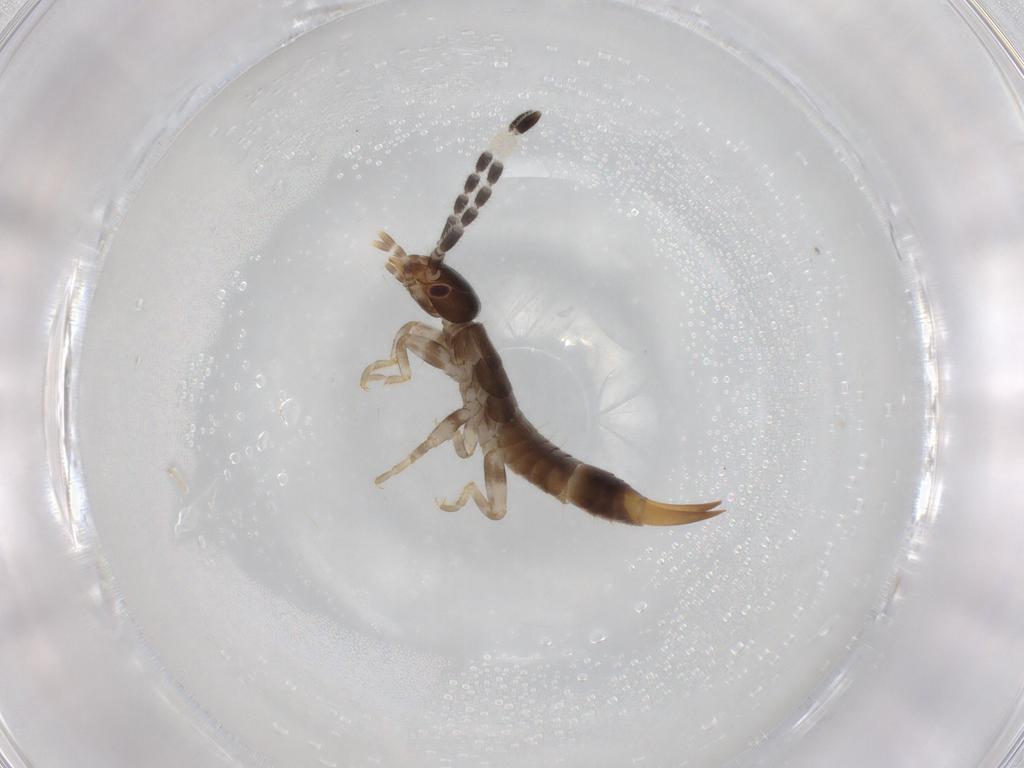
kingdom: Animalia
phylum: Arthropoda
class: Insecta
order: Dermaptera
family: Anisolabididae
